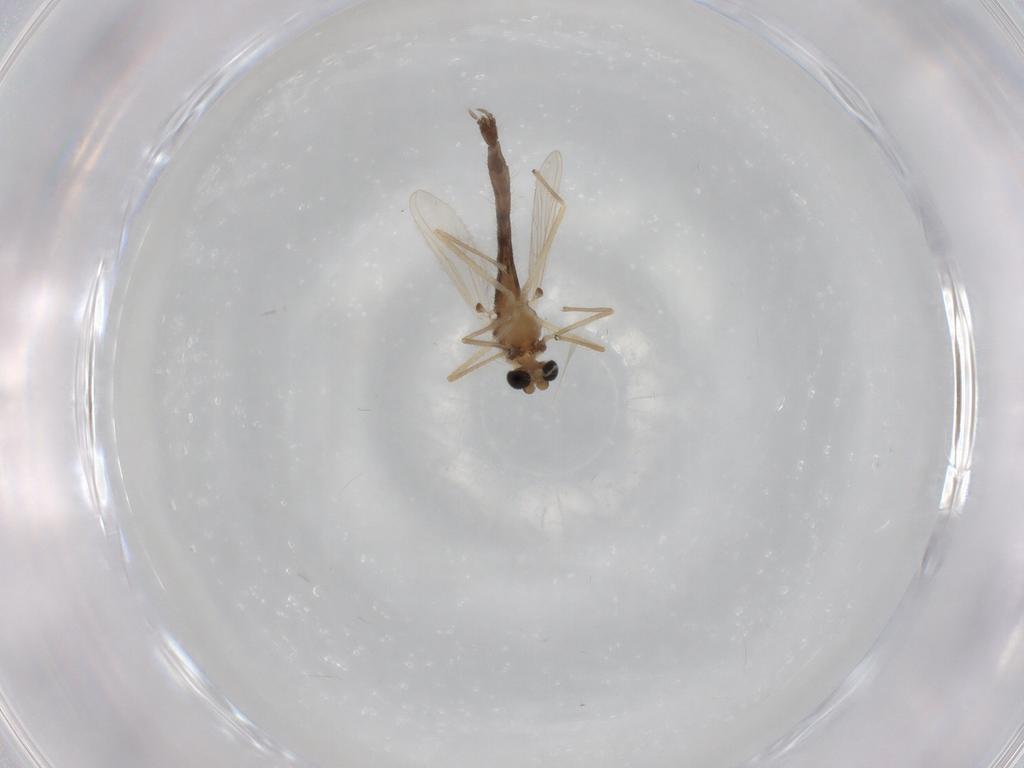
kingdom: Animalia
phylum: Arthropoda
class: Insecta
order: Diptera
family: Chironomidae
